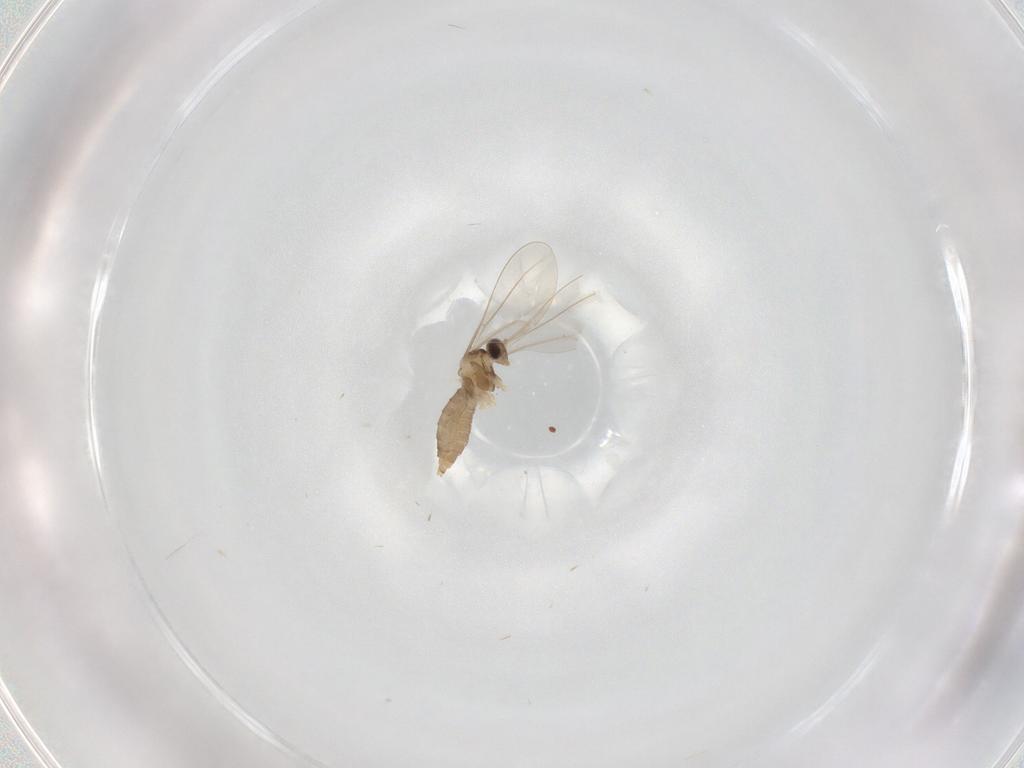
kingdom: Animalia
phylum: Arthropoda
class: Insecta
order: Diptera
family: Cecidomyiidae
